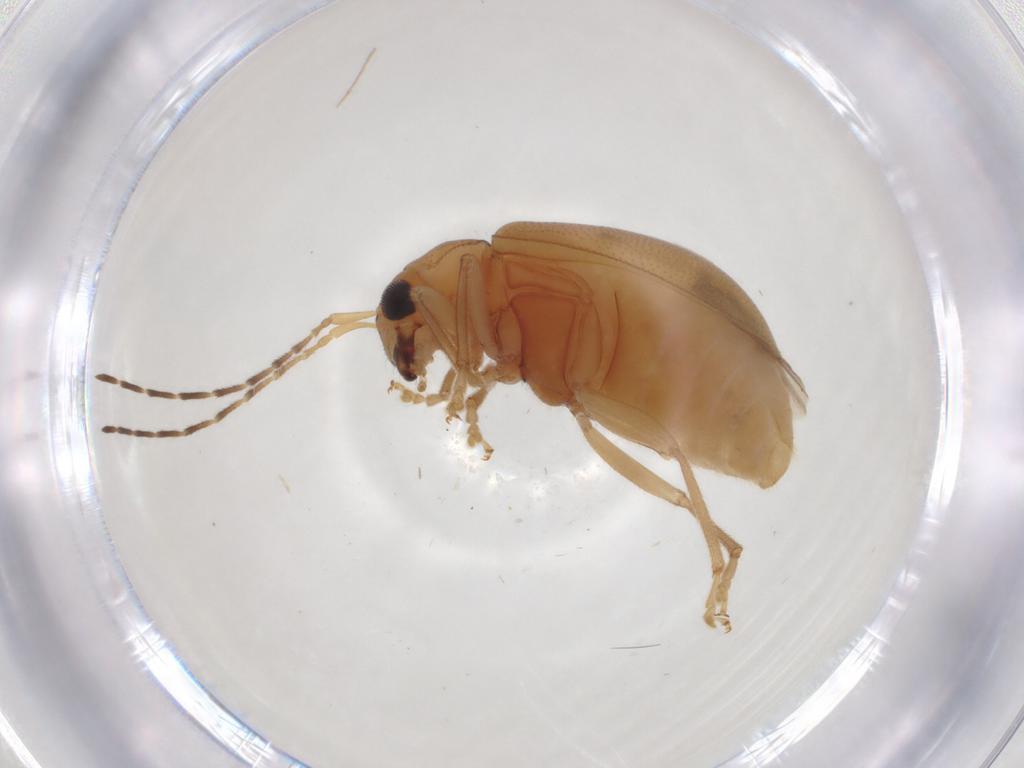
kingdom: Animalia
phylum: Arthropoda
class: Insecta
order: Coleoptera
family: Chrysomelidae
